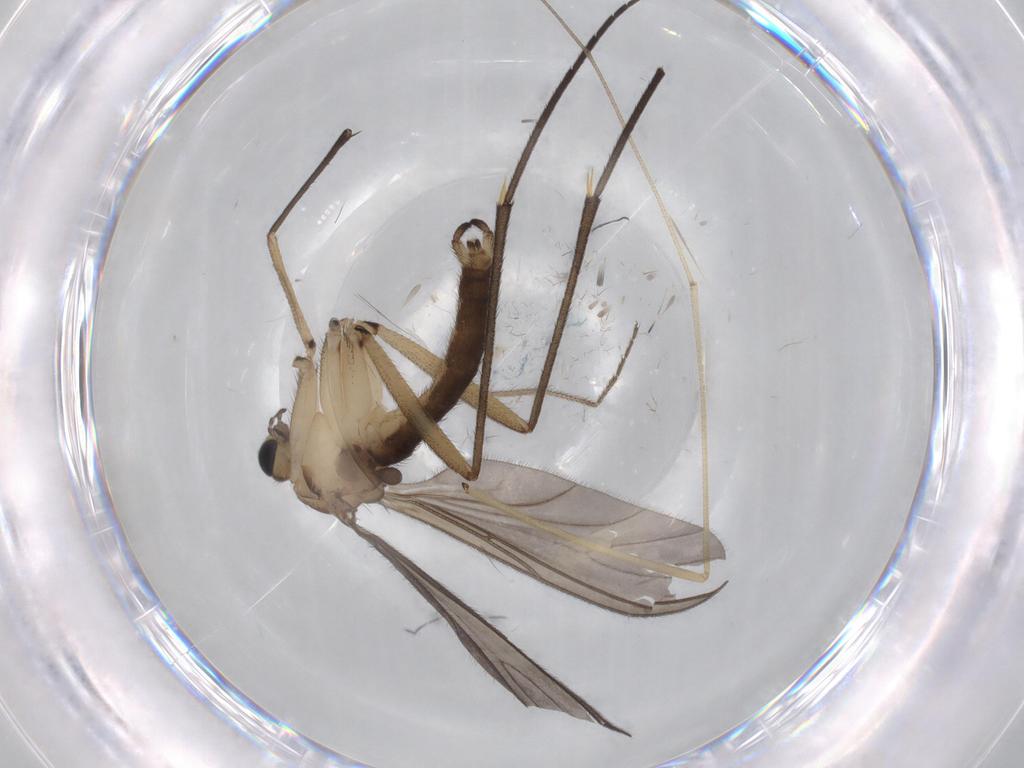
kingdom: Animalia
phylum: Arthropoda
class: Insecta
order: Diptera
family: Sciaridae
